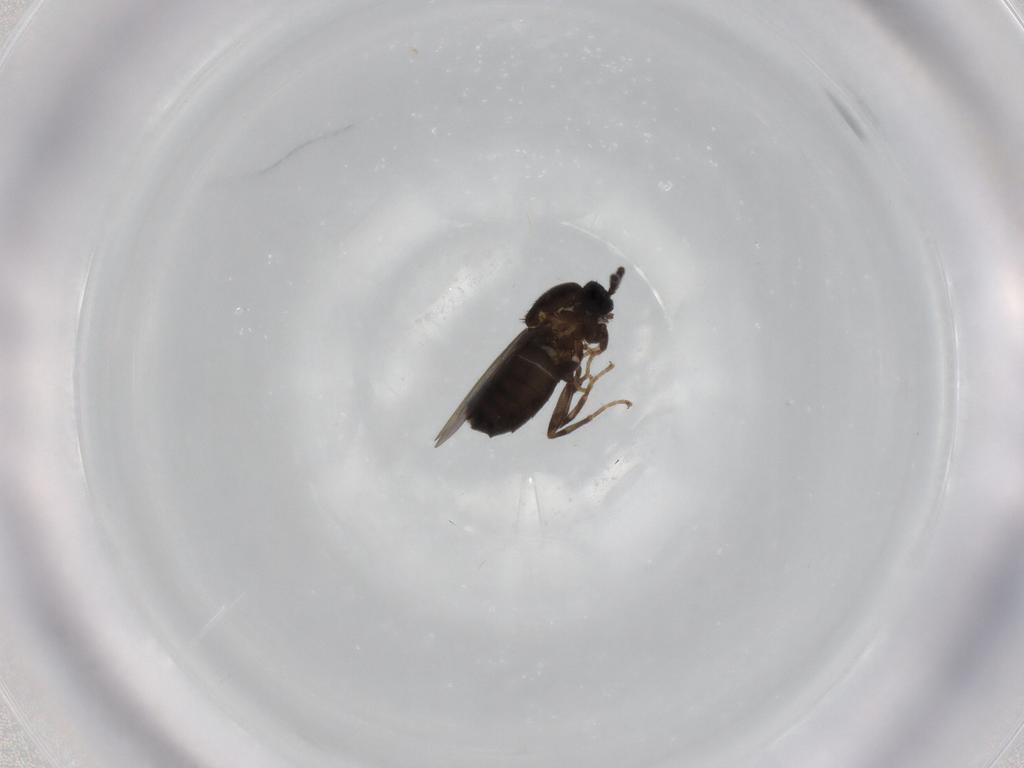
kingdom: Animalia
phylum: Arthropoda
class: Insecta
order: Diptera
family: Scatopsidae
